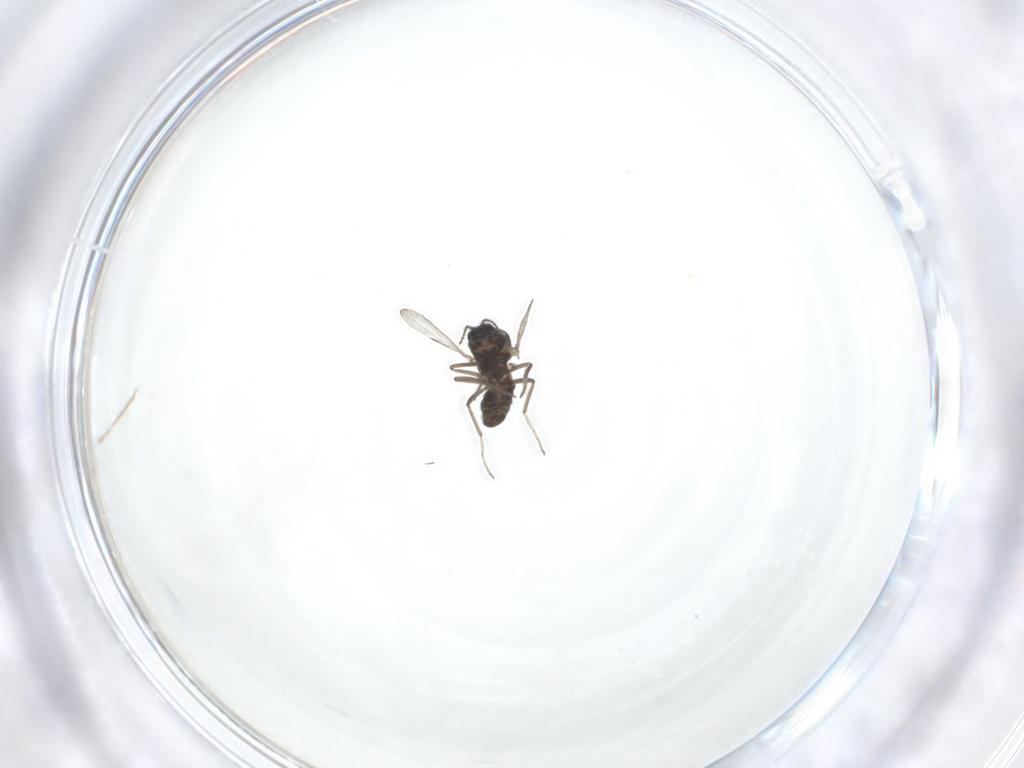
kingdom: Animalia
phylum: Arthropoda
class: Insecta
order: Diptera
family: Ceratopogonidae
